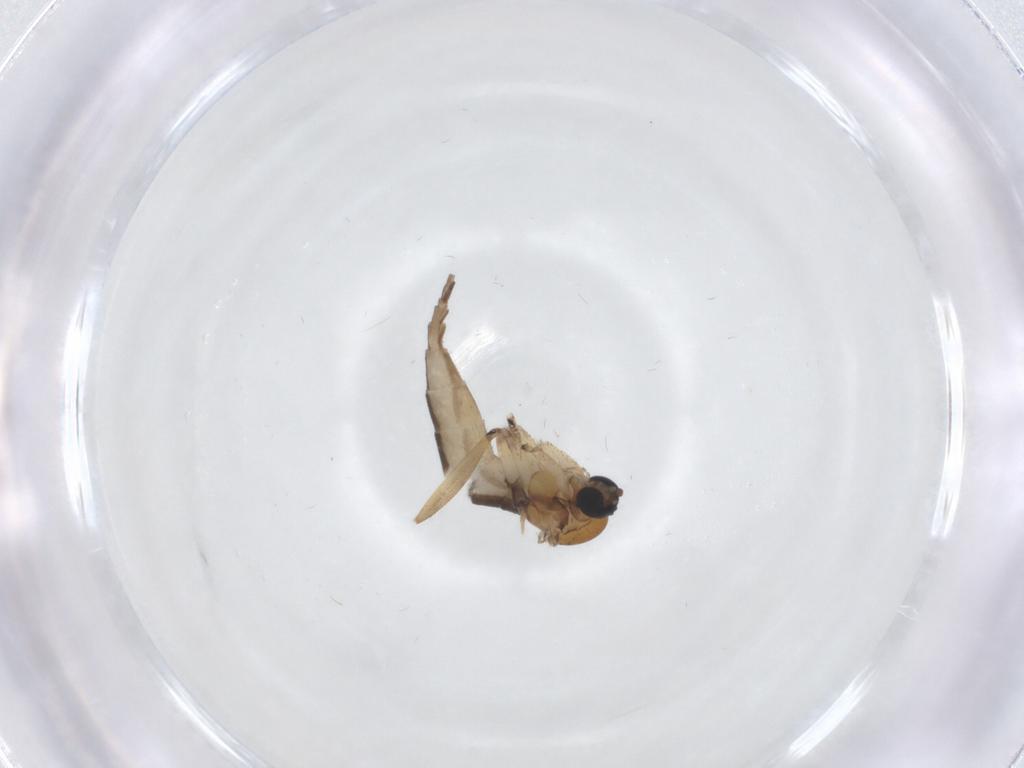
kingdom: Animalia
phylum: Arthropoda
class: Insecta
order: Diptera
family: Sciaridae
